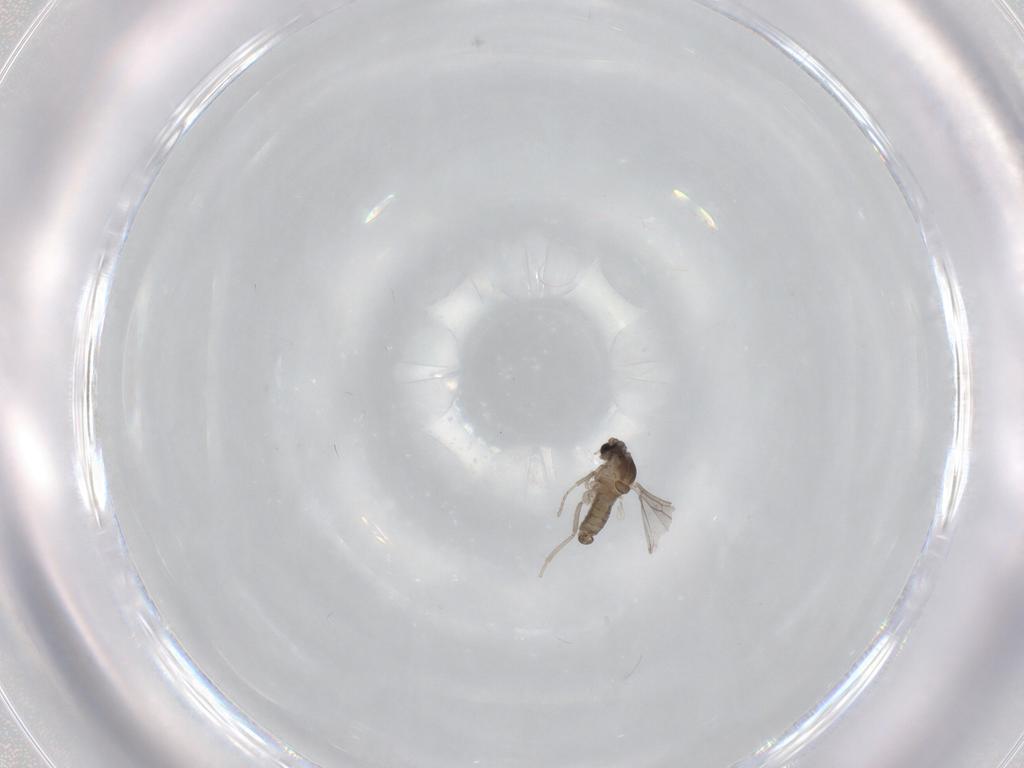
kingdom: Animalia
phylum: Arthropoda
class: Insecta
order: Diptera
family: Cecidomyiidae
